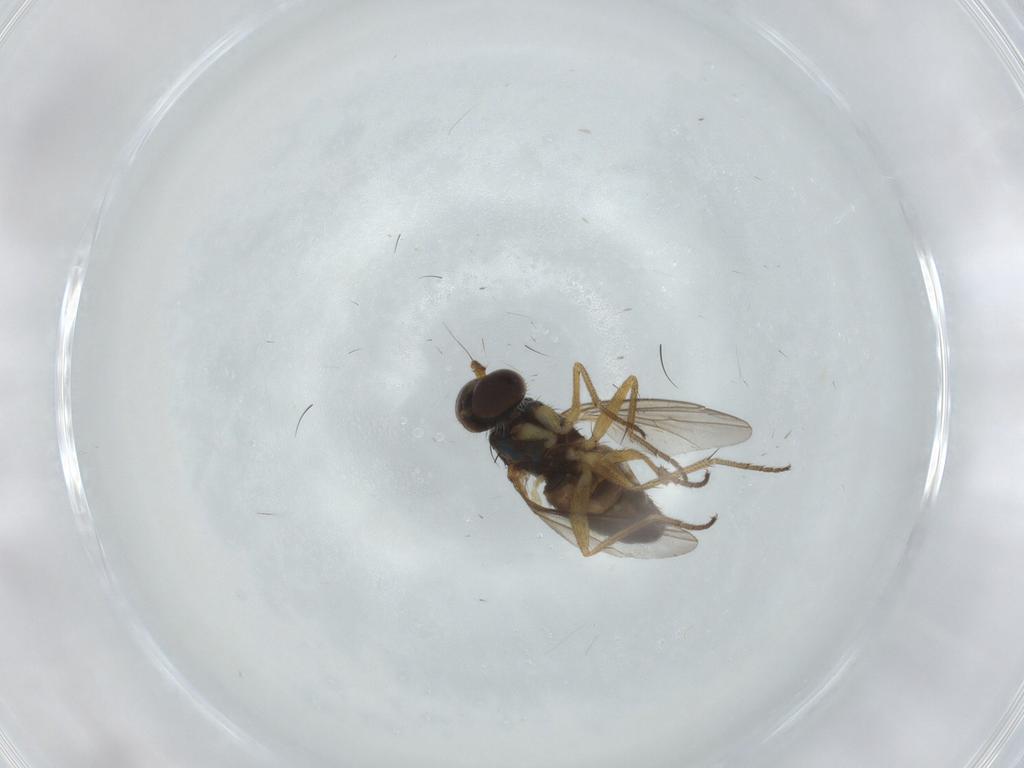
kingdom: Animalia
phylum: Arthropoda
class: Insecta
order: Diptera
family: Dolichopodidae
